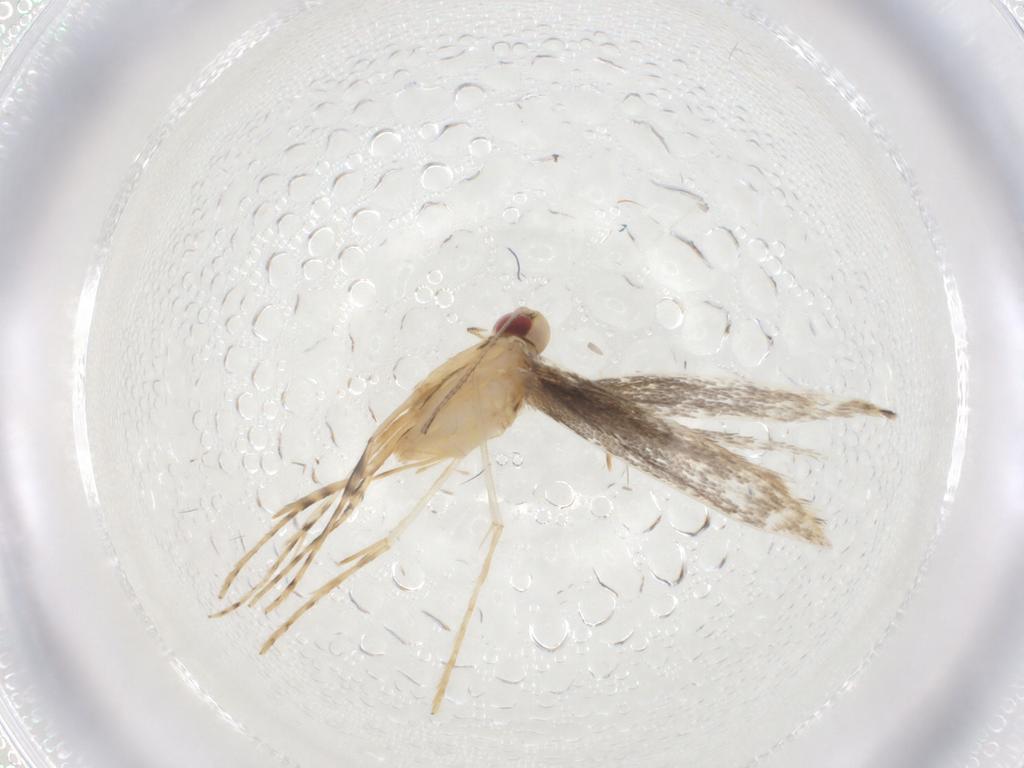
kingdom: Animalia
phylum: Arthropoda
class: Insecta
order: Lepidoptera
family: Gracillariidae
